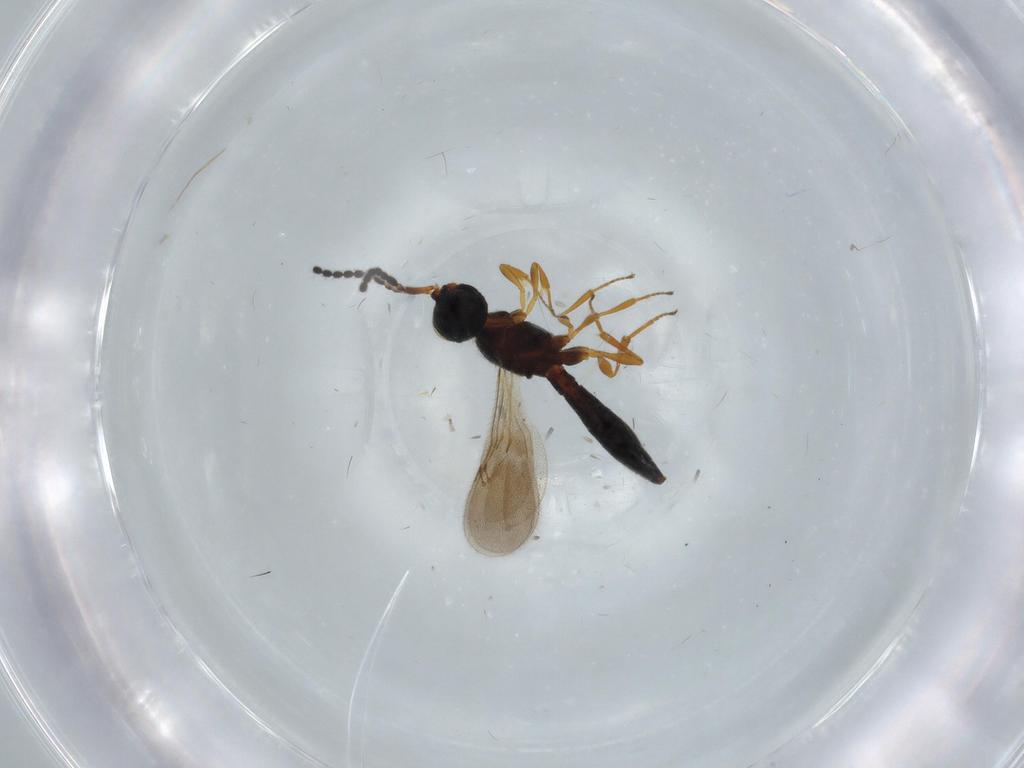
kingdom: Animalia
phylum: Arthropoda
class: Insecta
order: Hymenoptera
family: Scelionidae
